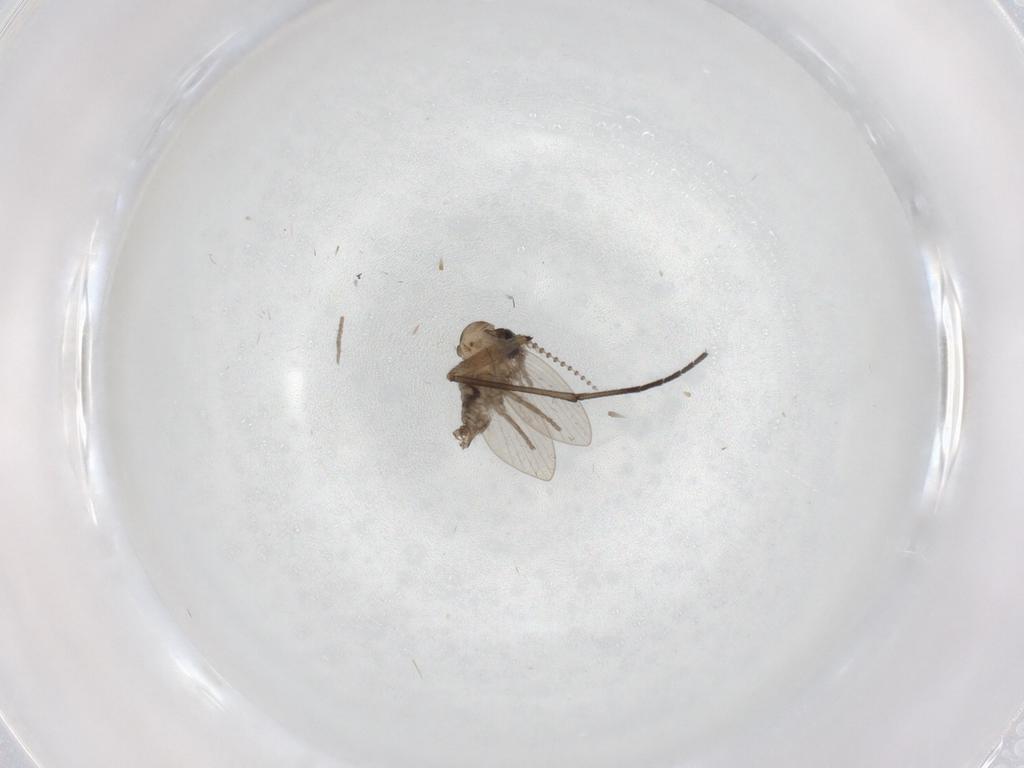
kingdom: Animalia
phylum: Arthropoda
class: Insecta
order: Diptera
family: Psychodidae
